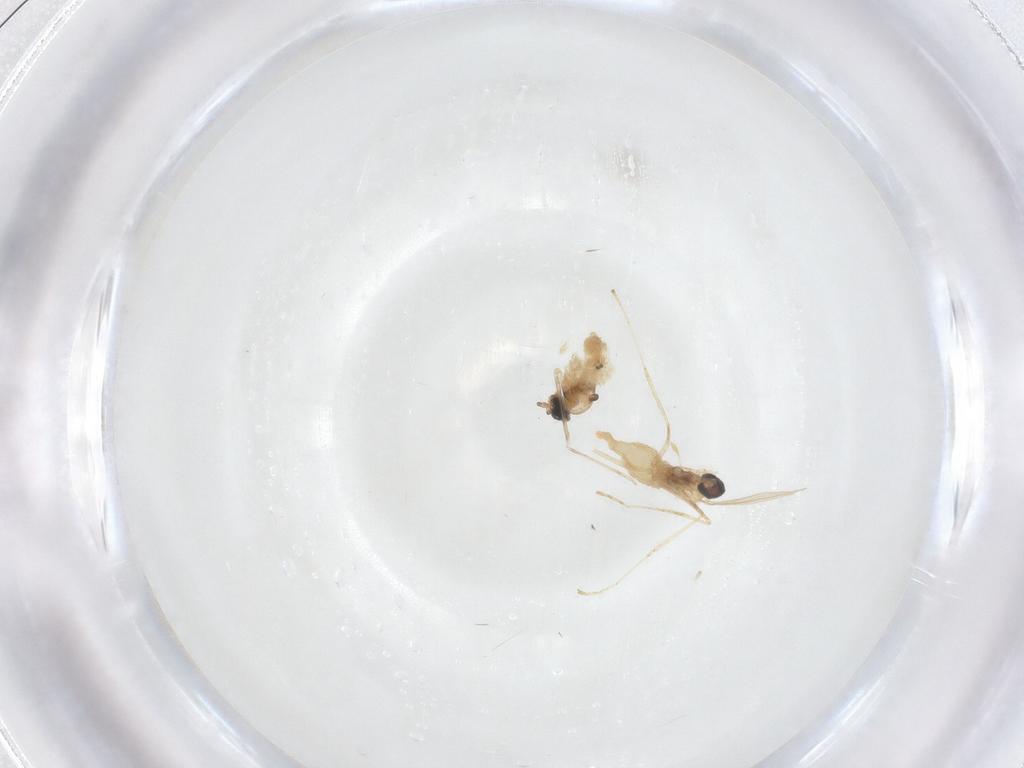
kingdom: Animalia
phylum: Arthropoda
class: Insecta
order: Diptera
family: Cecidomyiidae
